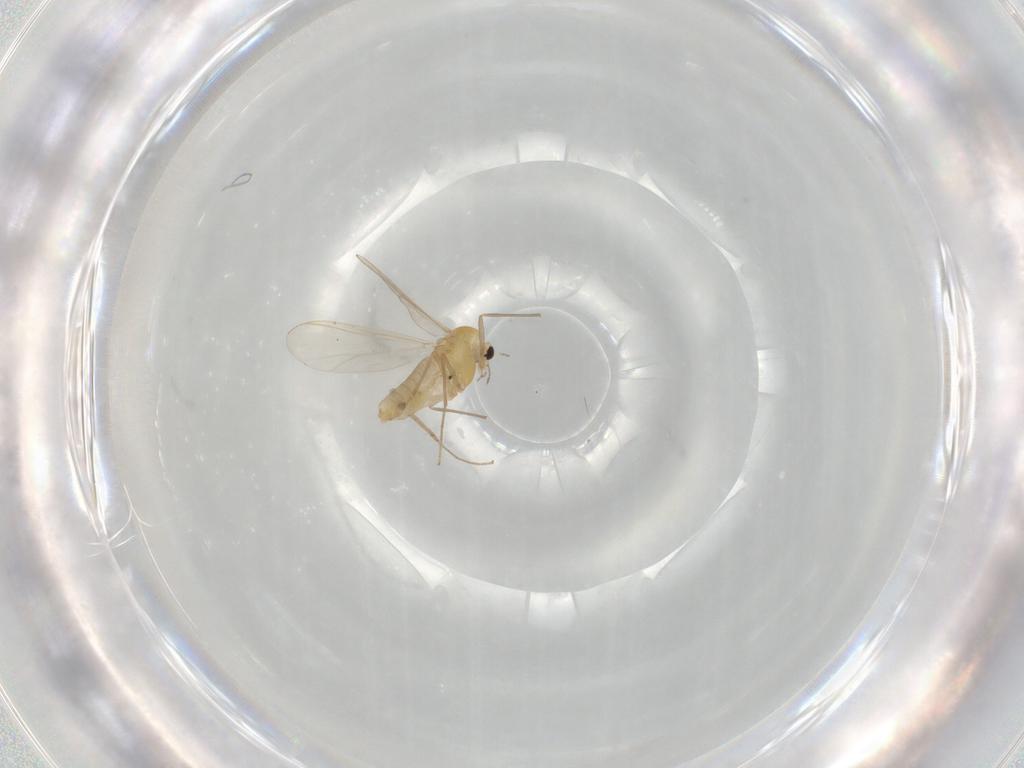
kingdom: Animalia
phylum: Arthropoda
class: Insecta
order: Diptera
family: Chironomidae
